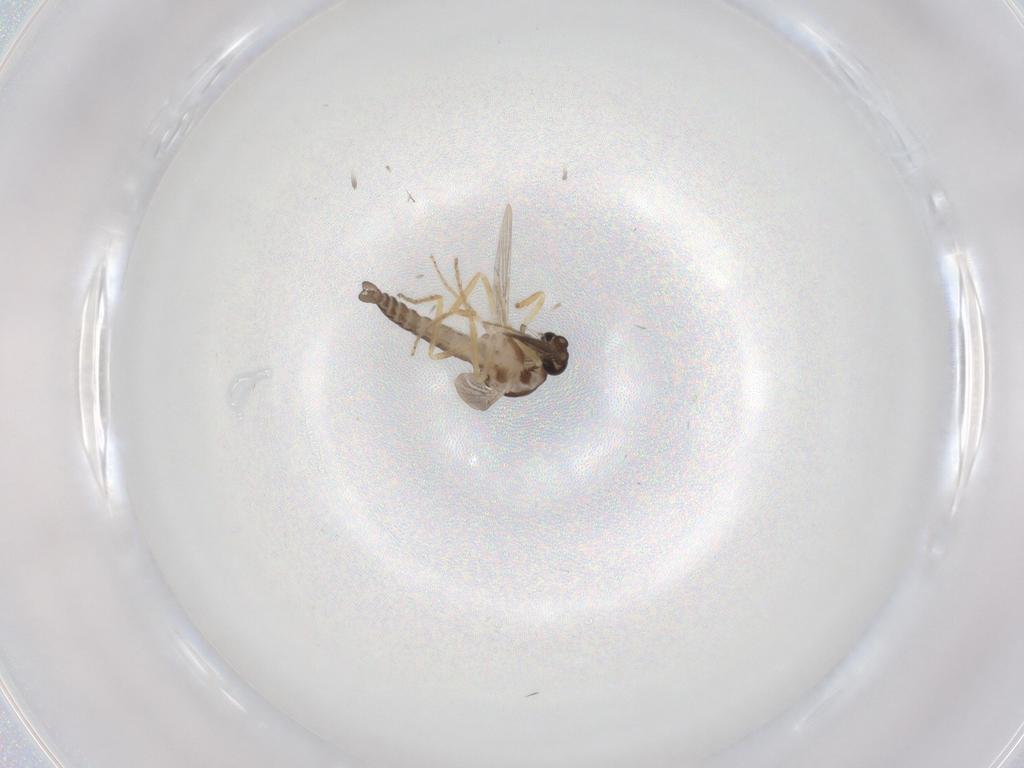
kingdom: Animalia
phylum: Arthropoda
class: Insecta
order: Diptera
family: Ceratopogonidae
